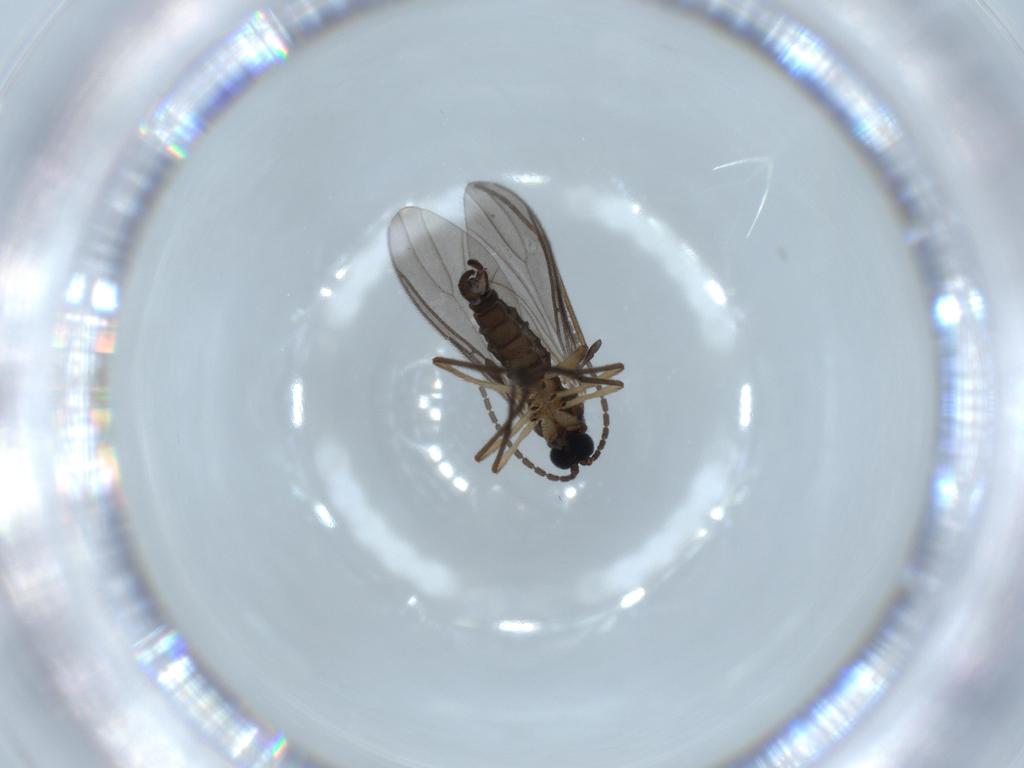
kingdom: Animalia
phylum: Arthropoda
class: Insecta
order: Diptera
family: Sciaridae
